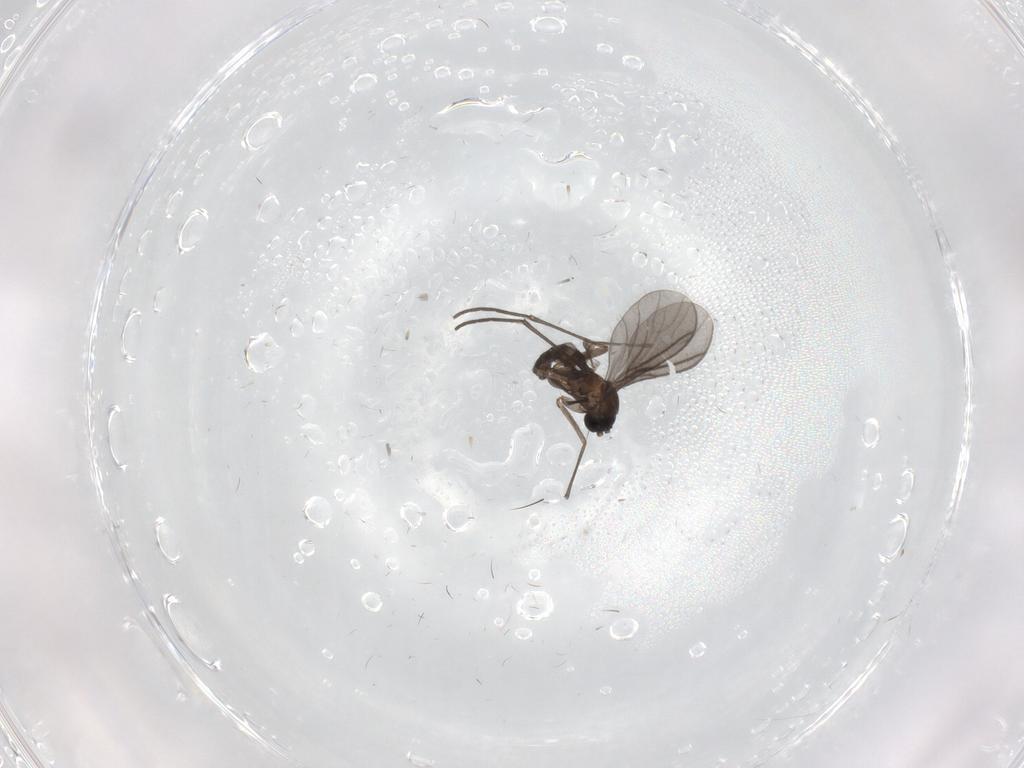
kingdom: Animalia
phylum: Arthropoda
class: Insecta
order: Diptera
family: Sciaridae
